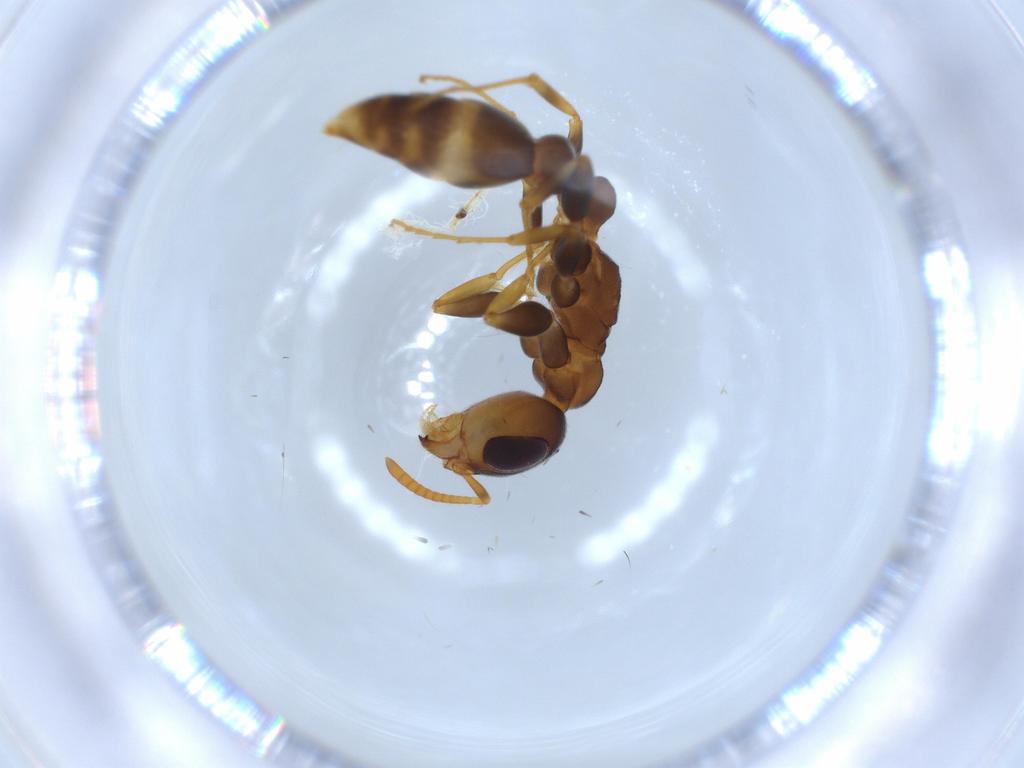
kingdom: Animalia
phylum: Arthropoda
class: Insecta
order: Hymenoptera
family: Formicidae
